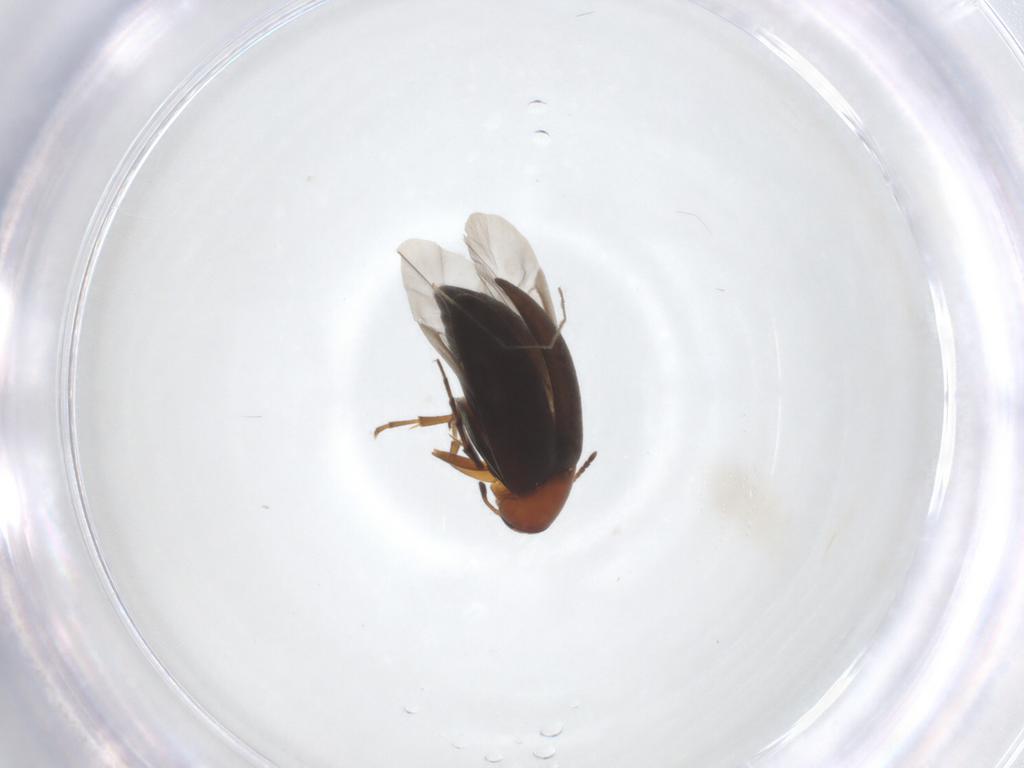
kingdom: Animalia
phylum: Arthropoda
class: Insecta
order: Coleoptera
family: Scraptiidae
